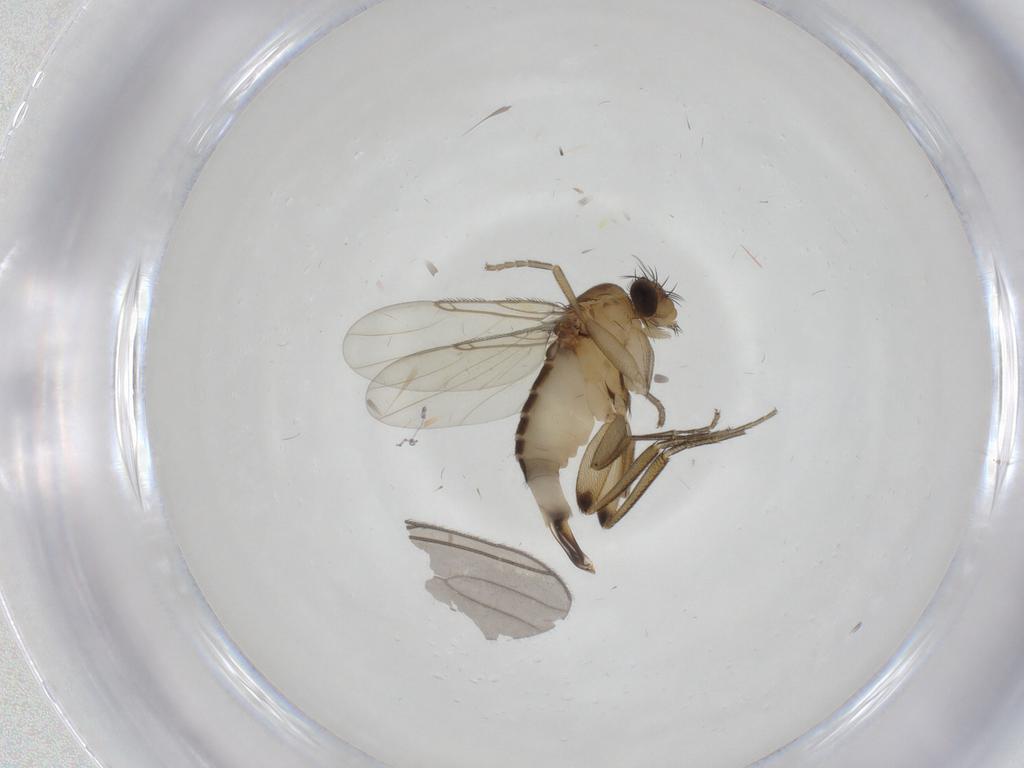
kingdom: Animalia
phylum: Arthropoda
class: Insecta
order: Diptera
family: Phoridae
